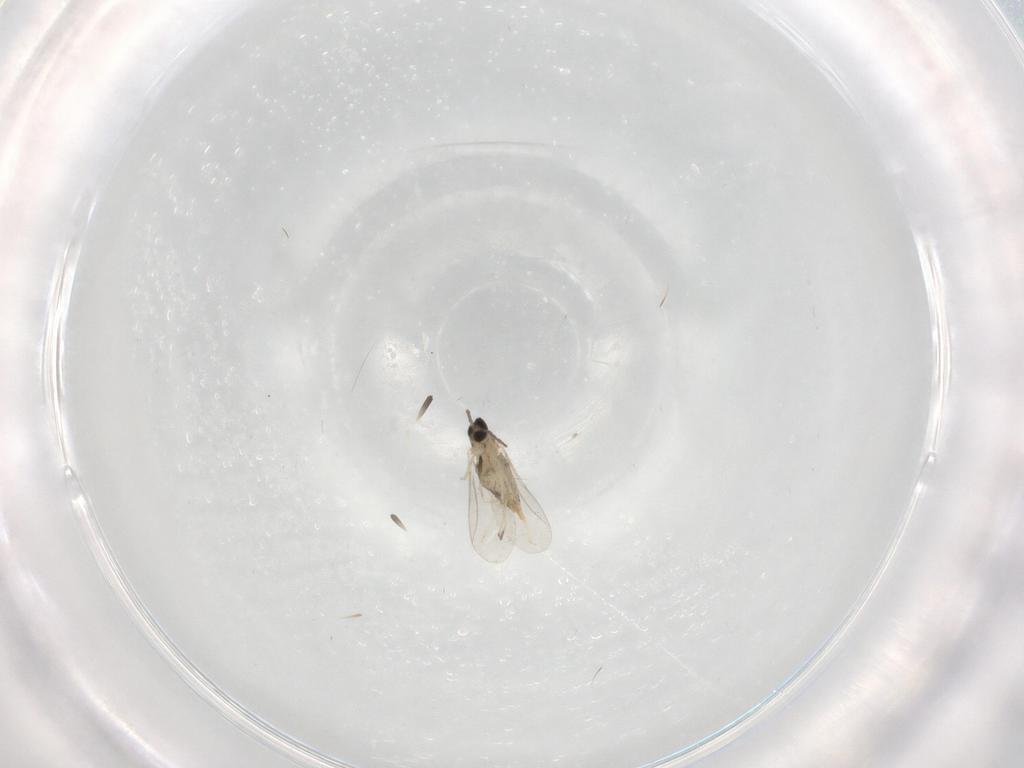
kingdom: Animalia
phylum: Arthropoda
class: Insecta
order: Diptera
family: Cecidomyiidae
